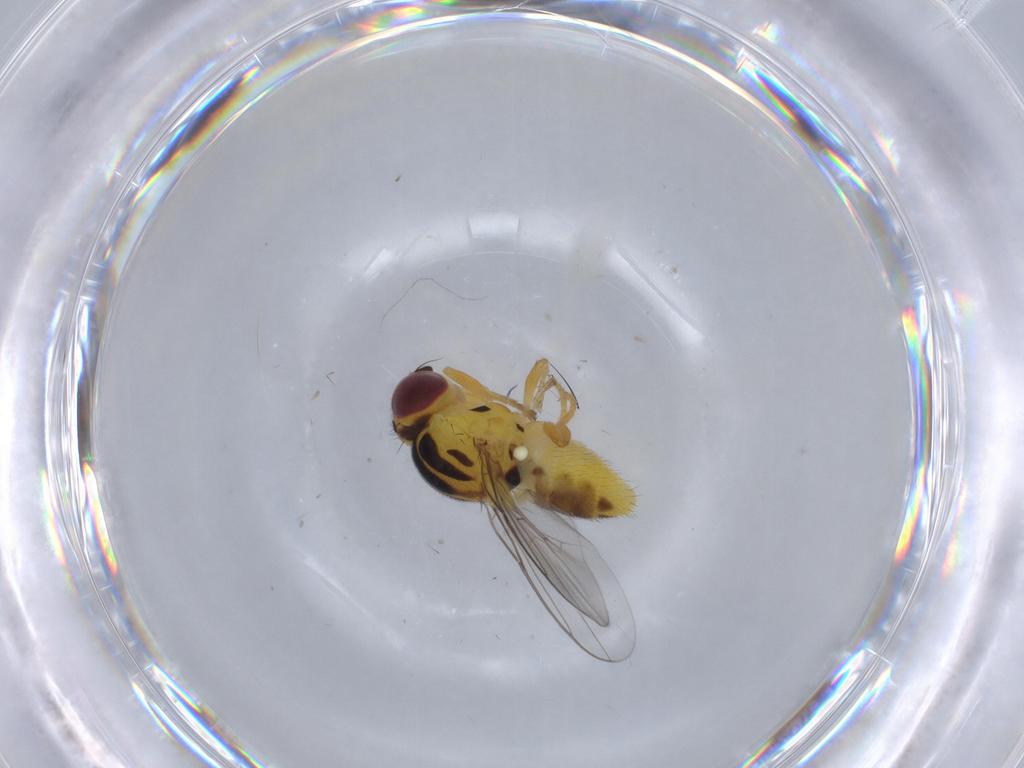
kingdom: Animalia
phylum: Arthropoda
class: Insecta
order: Diptera
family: Chloropidae
